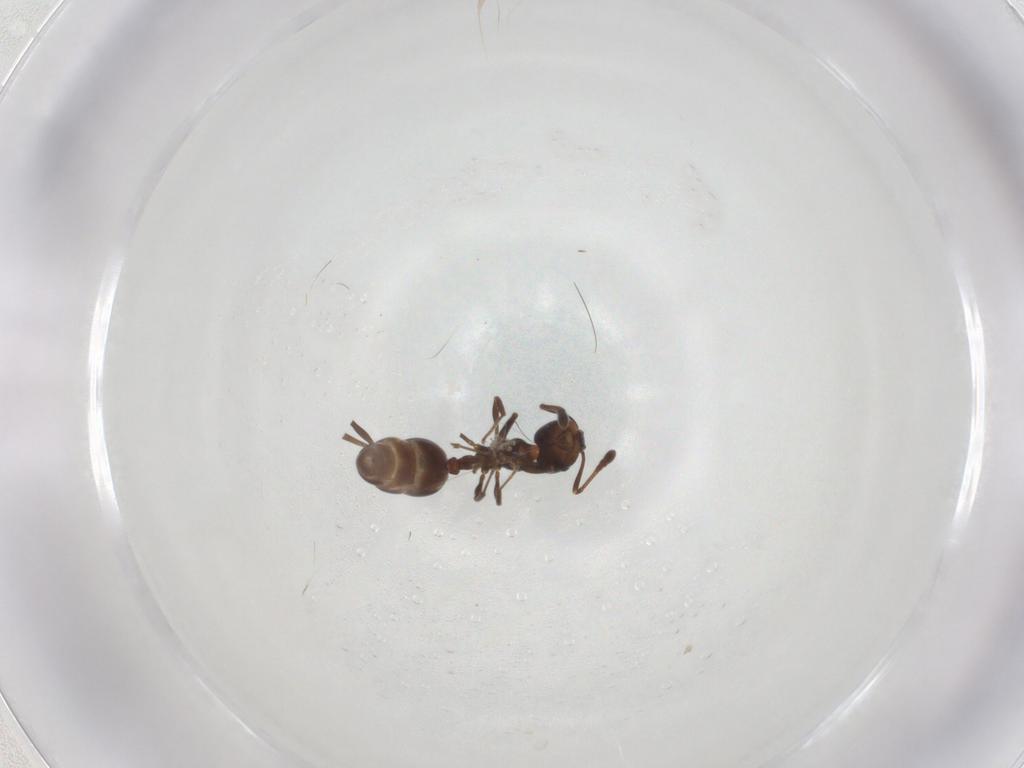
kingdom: Animalia
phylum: Arthropoda
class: Insecta
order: Hymenoptera
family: Formicidae
